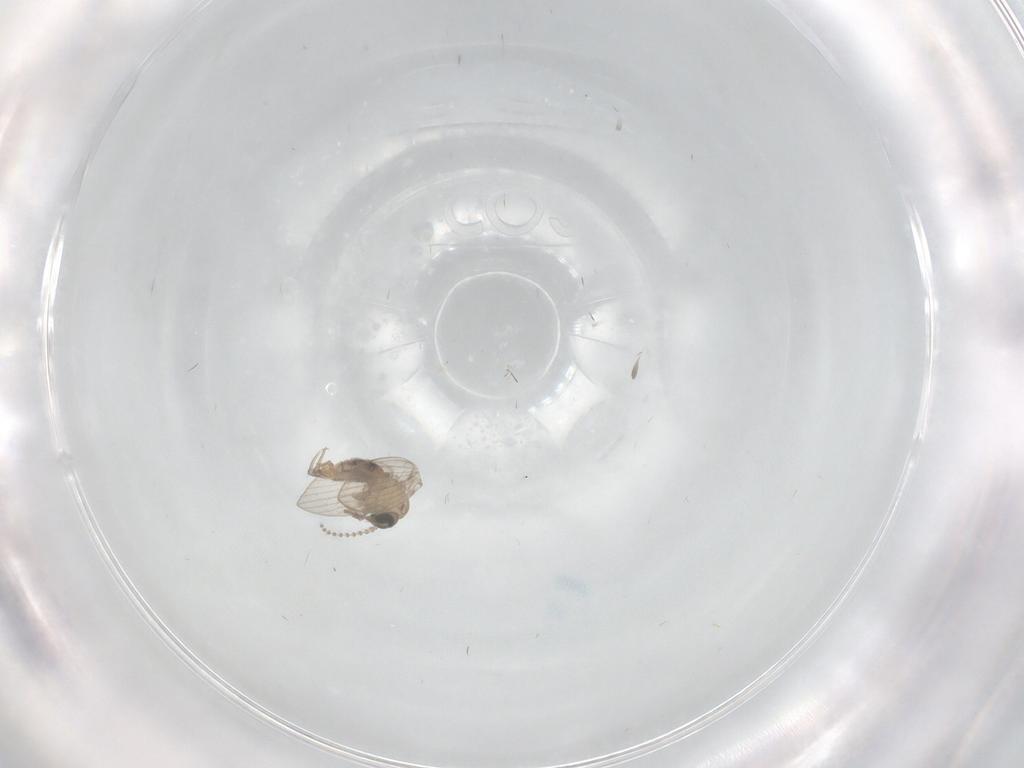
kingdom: Animalia
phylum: Arthropoda
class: Insecta
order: Diptera
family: Psychodidae
